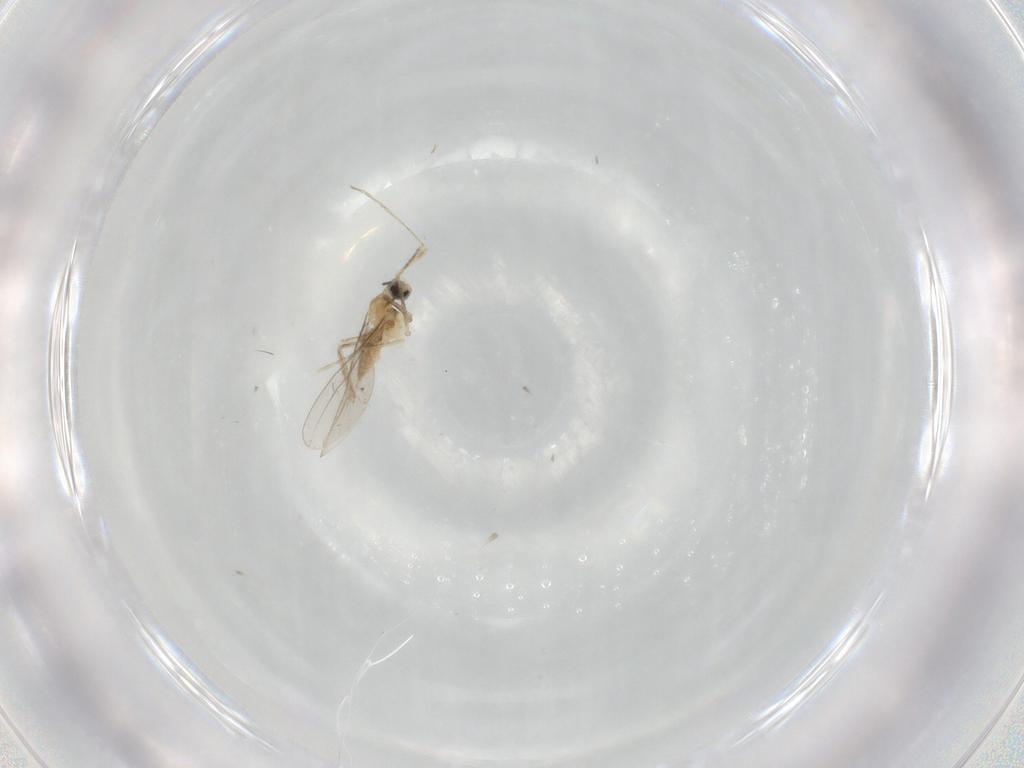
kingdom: Animalia
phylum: Arthropoda
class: Insecta
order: Diptera
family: Cecidomyiidae
